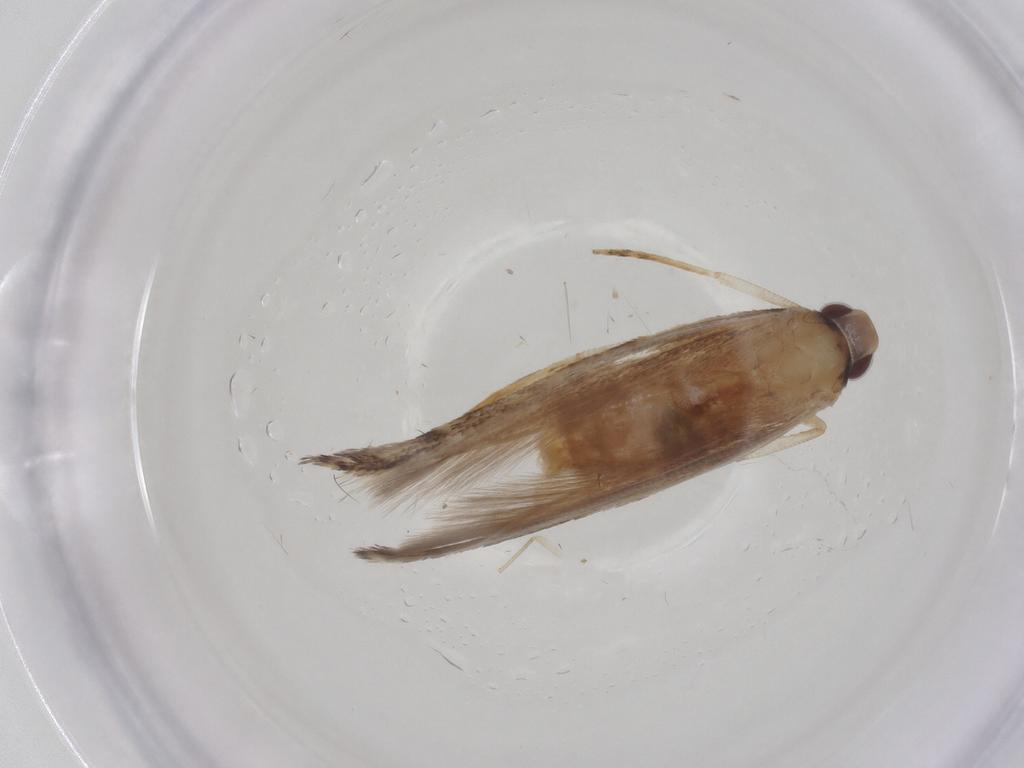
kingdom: Animalia
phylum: Arthropoda
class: Insecta
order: Lepidoptera
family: Cosmopterigidae
